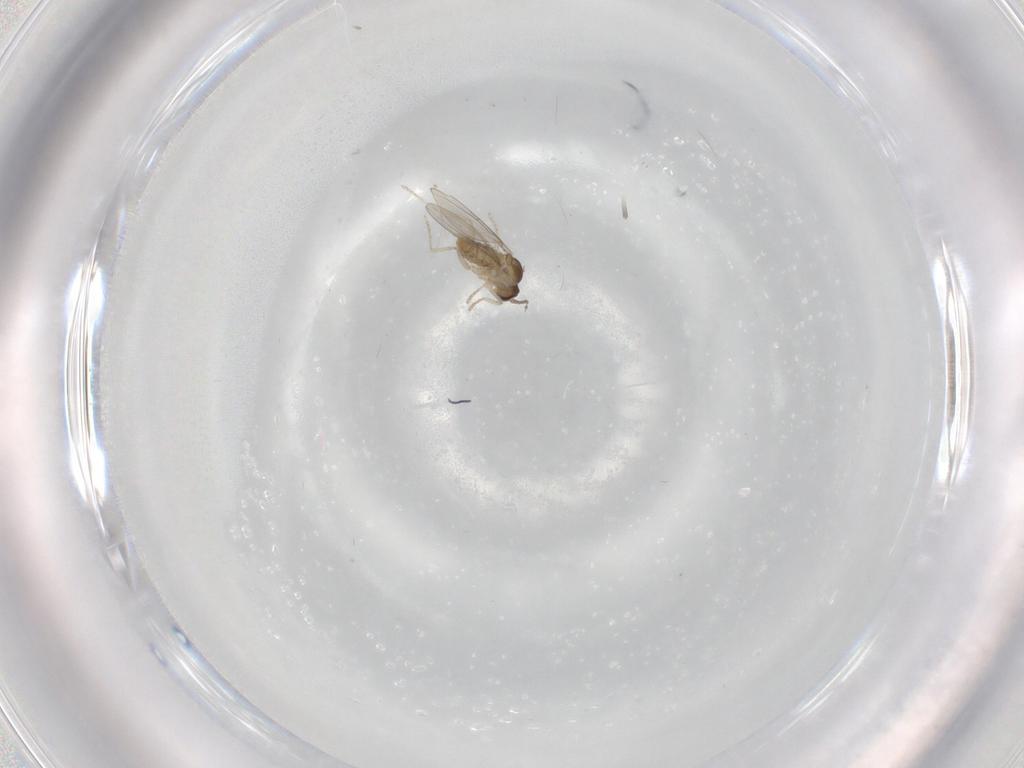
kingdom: Animalia
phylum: Arthropoda
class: Insecta
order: Diptera
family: Cecidomyiidae
